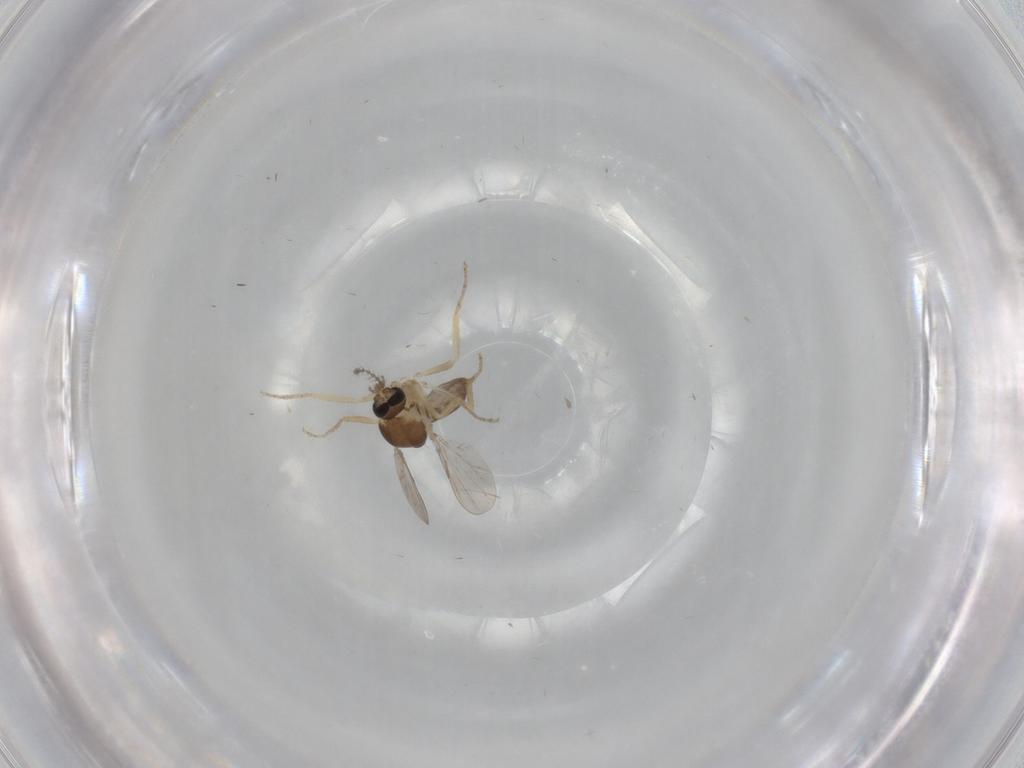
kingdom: Animalia
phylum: Arthropoda
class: Insecta
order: Diptera
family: Ceratopogonidae
